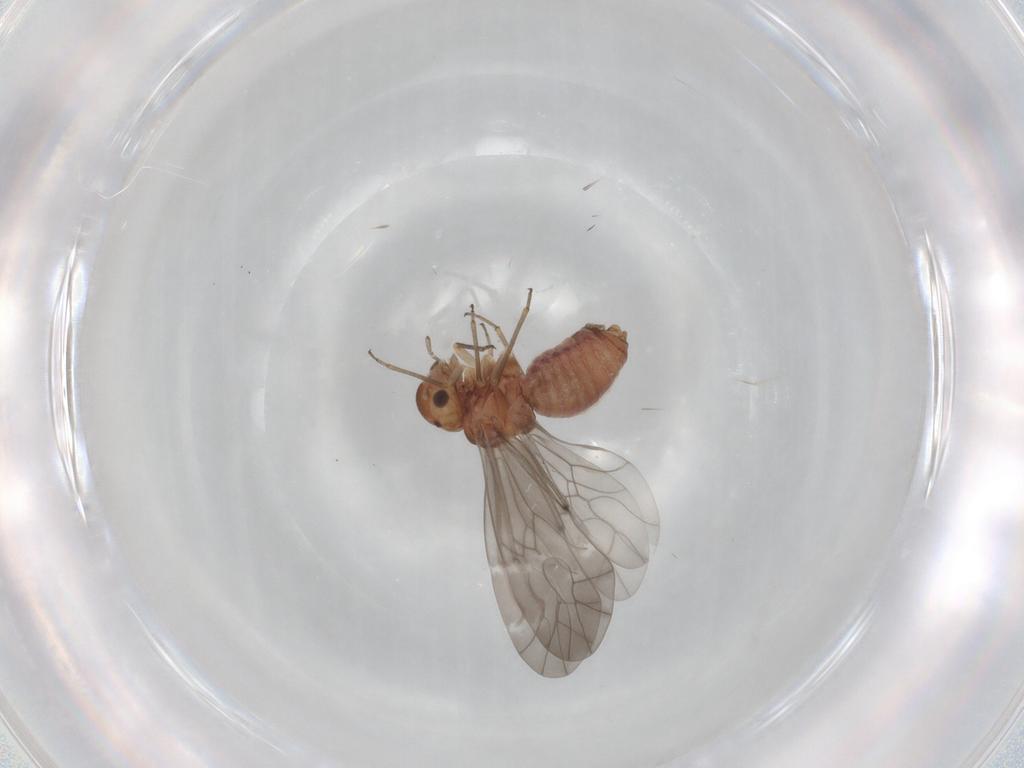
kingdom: Animalia
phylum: Arthropoda
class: Insecta
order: Psocodea
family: Peripsocidae
